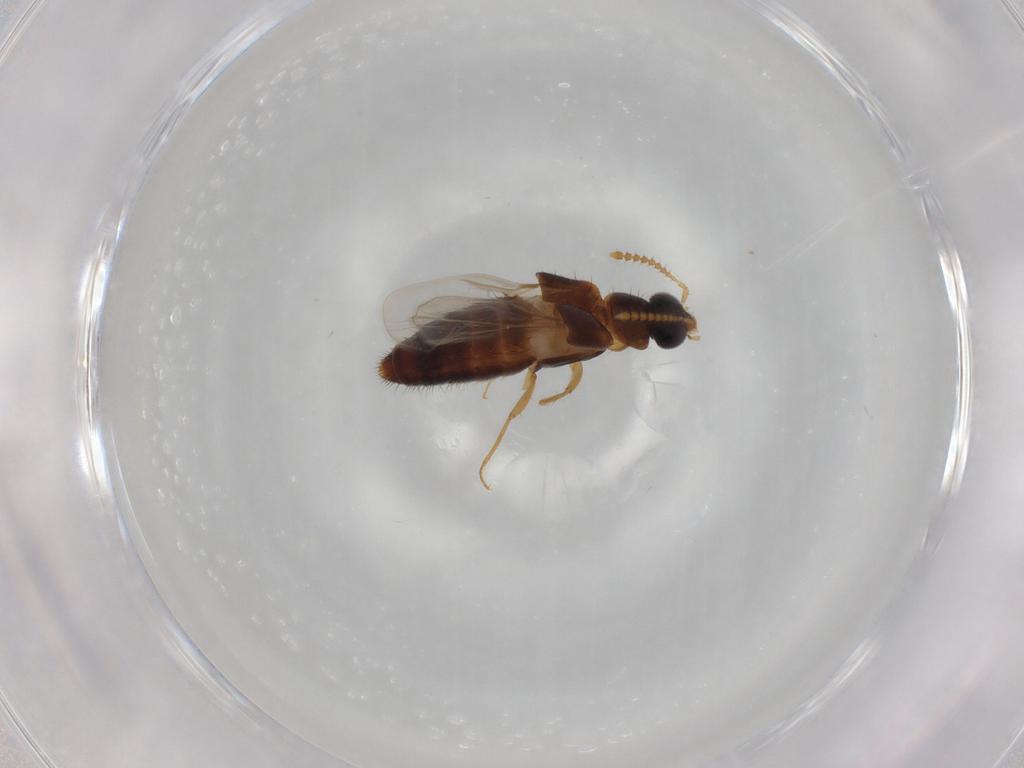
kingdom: Animalia
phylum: Arthropoda
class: Insecta
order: Coleoptera
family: Staphylinidae
